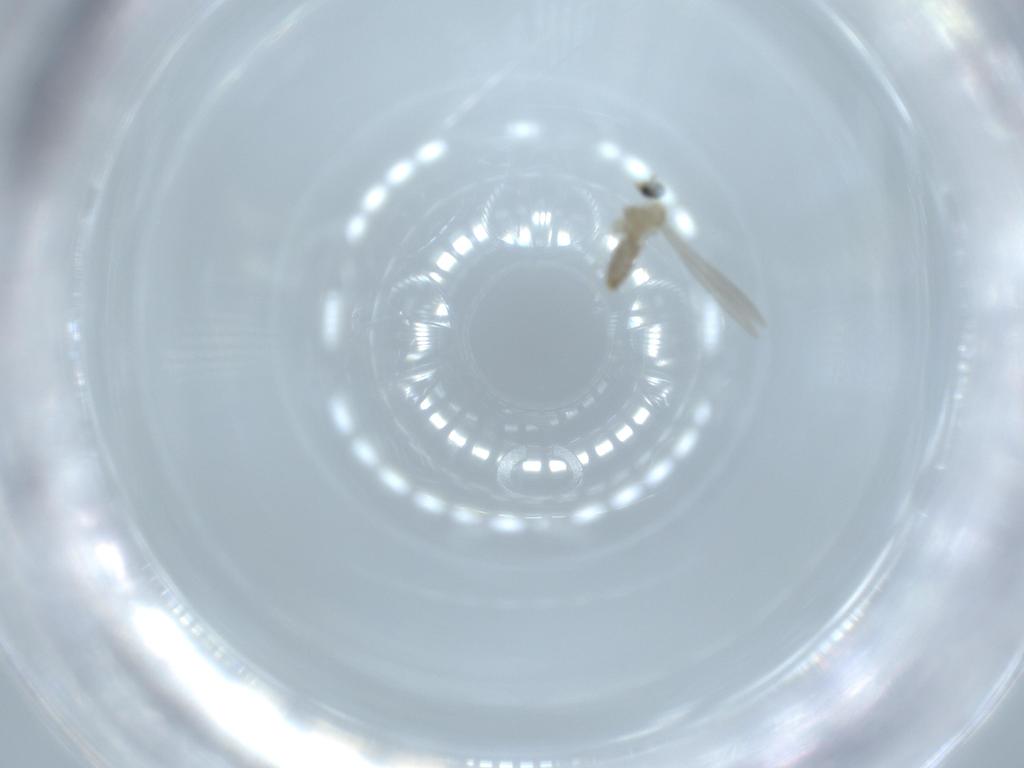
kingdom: Animalia
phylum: Arthropoda
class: Insecta
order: Diptera
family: Cecidomyiidae
